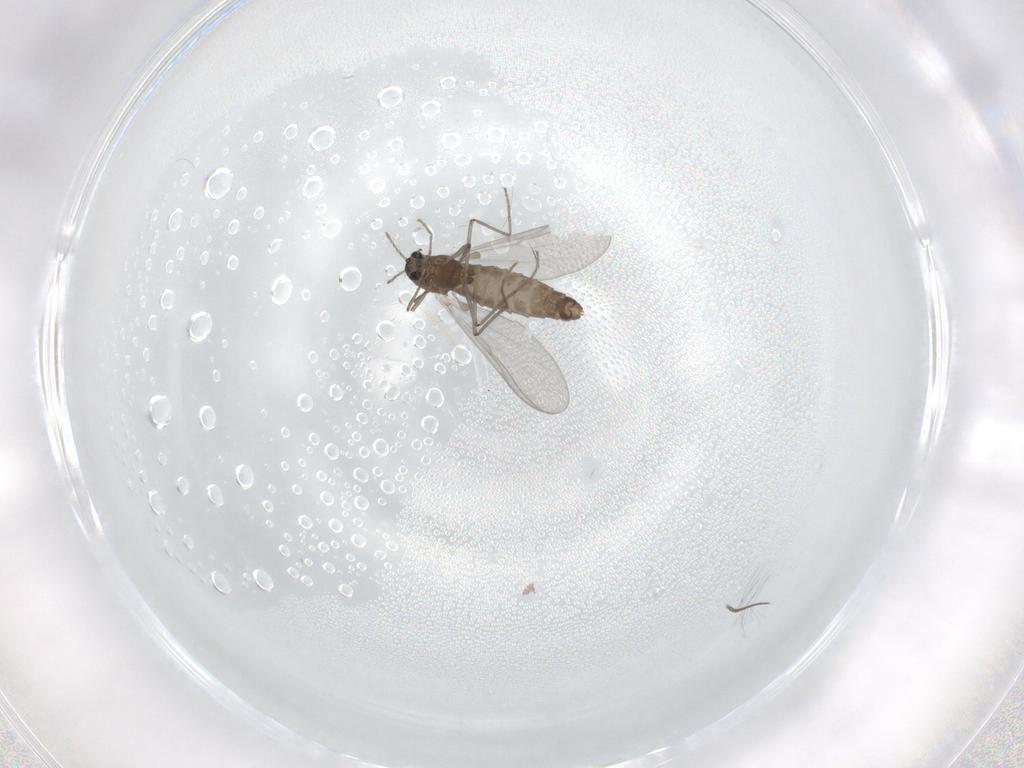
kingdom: Animalia
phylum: Arthropoda
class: Insecta
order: Diptera
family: Chironomidae
